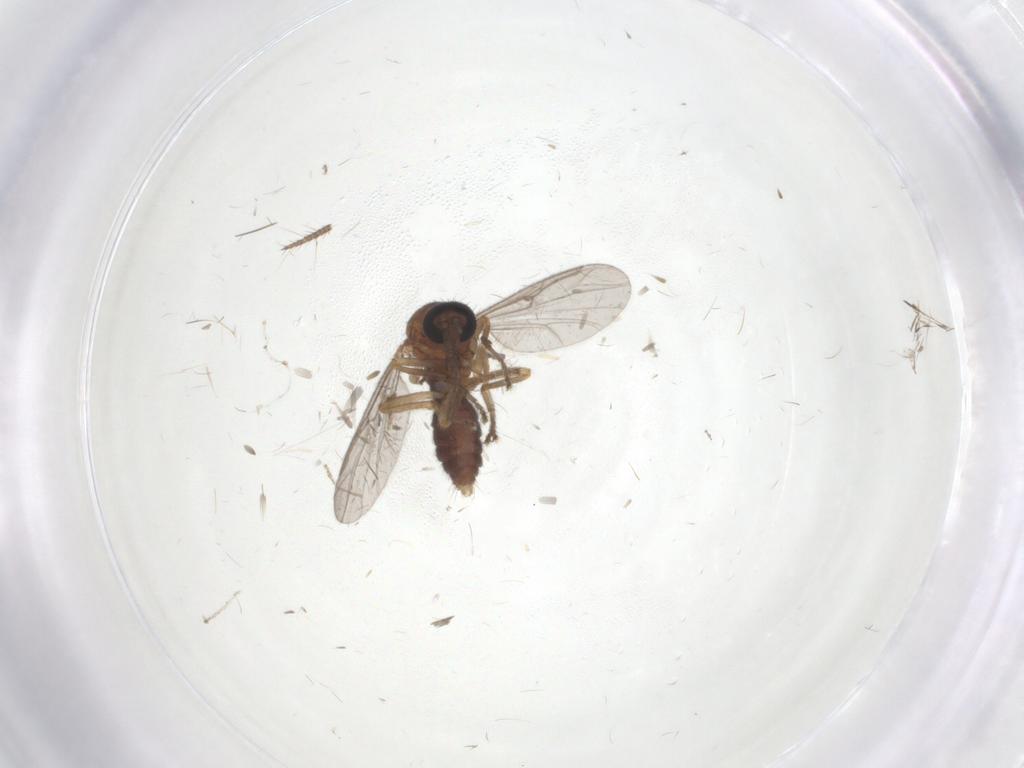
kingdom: Animalia
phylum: Arthropoda
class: Insecta
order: Diptera
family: Ceratopogonidae
